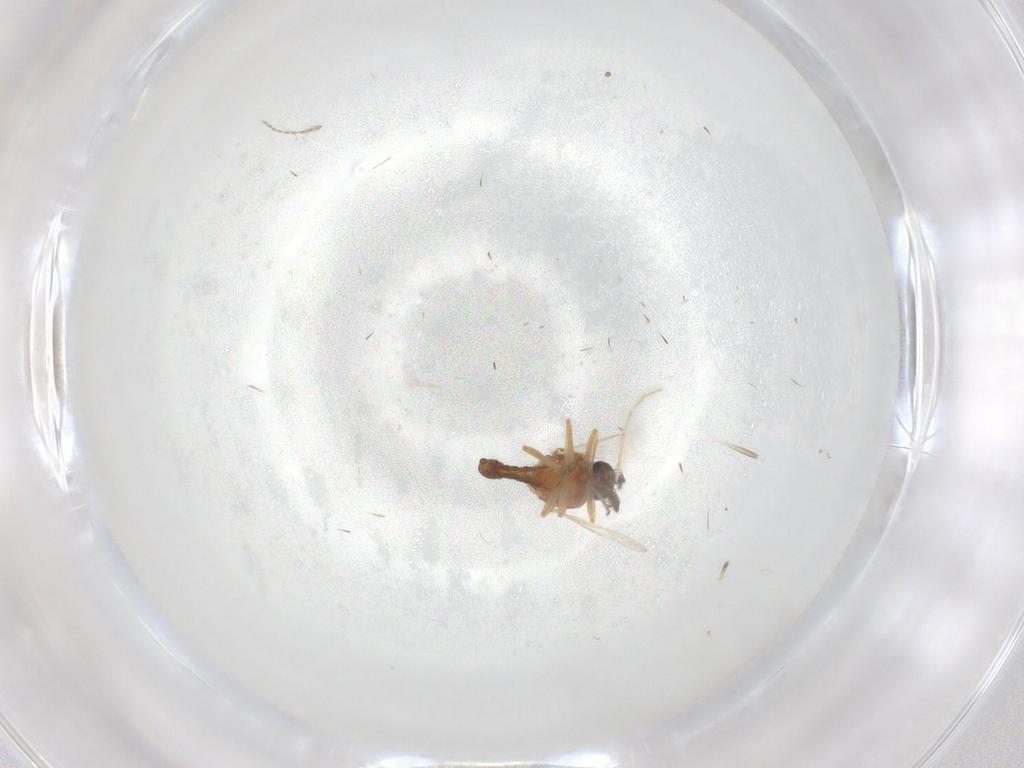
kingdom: Animalia
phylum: Arthropoda
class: Insecta
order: Diptera
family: Ceratopogonidae
